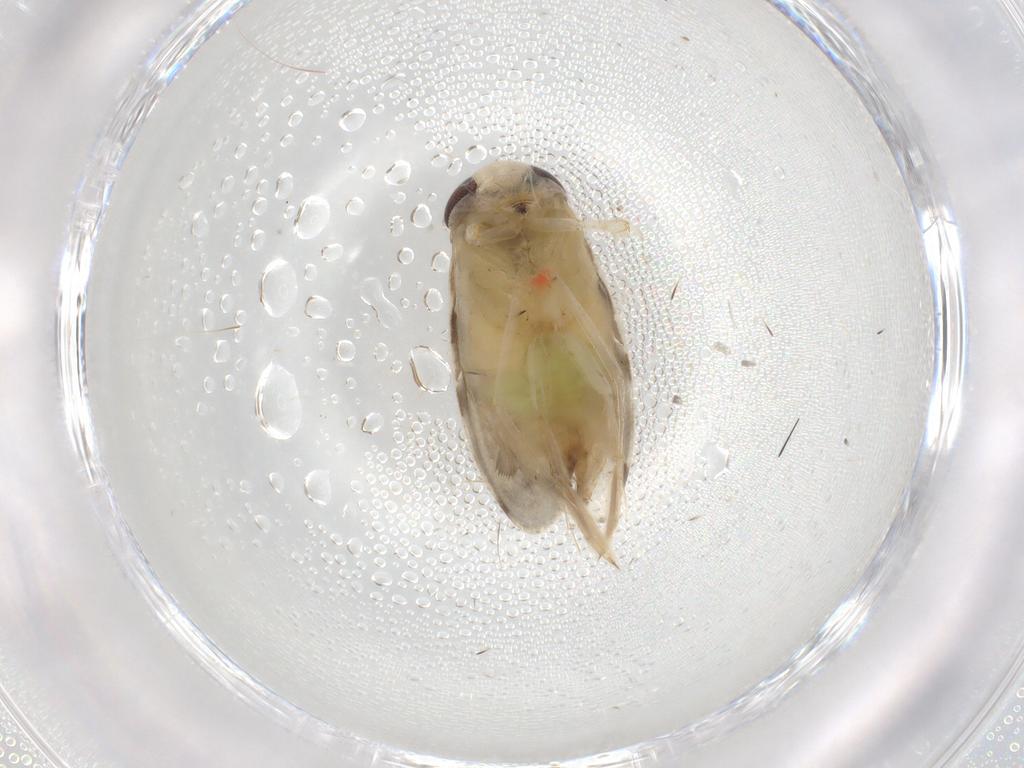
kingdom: Animalia
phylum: Arthropoda
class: Insecta
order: Hemiptera
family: Corixidae
